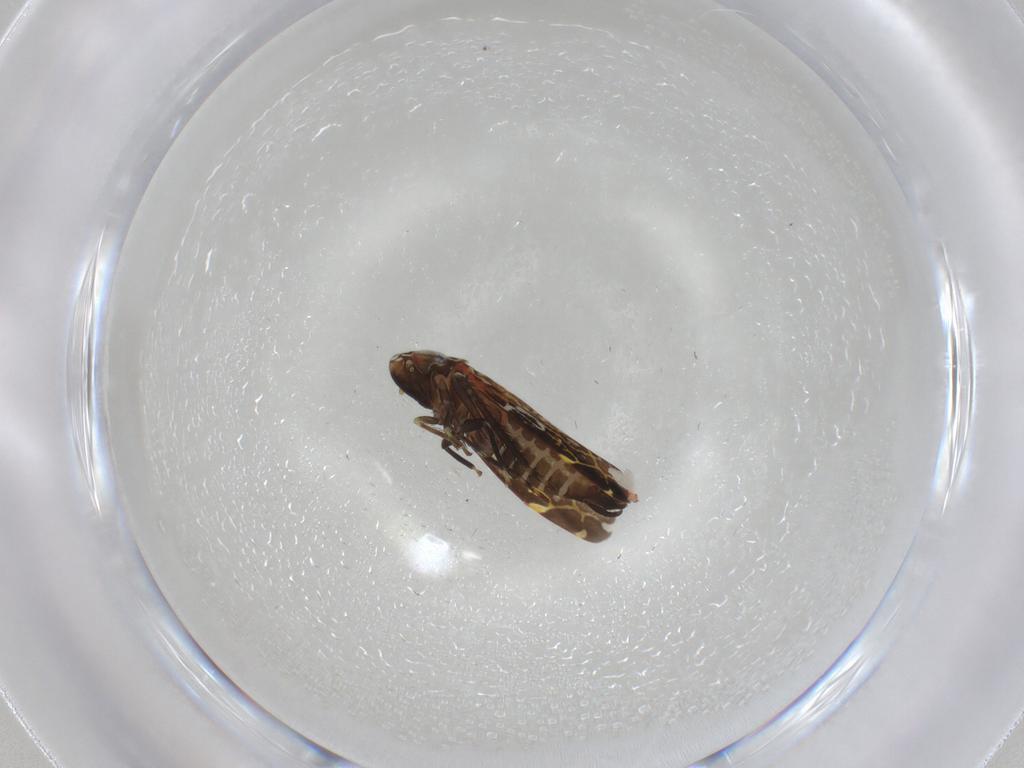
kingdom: Animalia
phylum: Arthropoda
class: Insecta
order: Hemiptera
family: Cicadellidae
